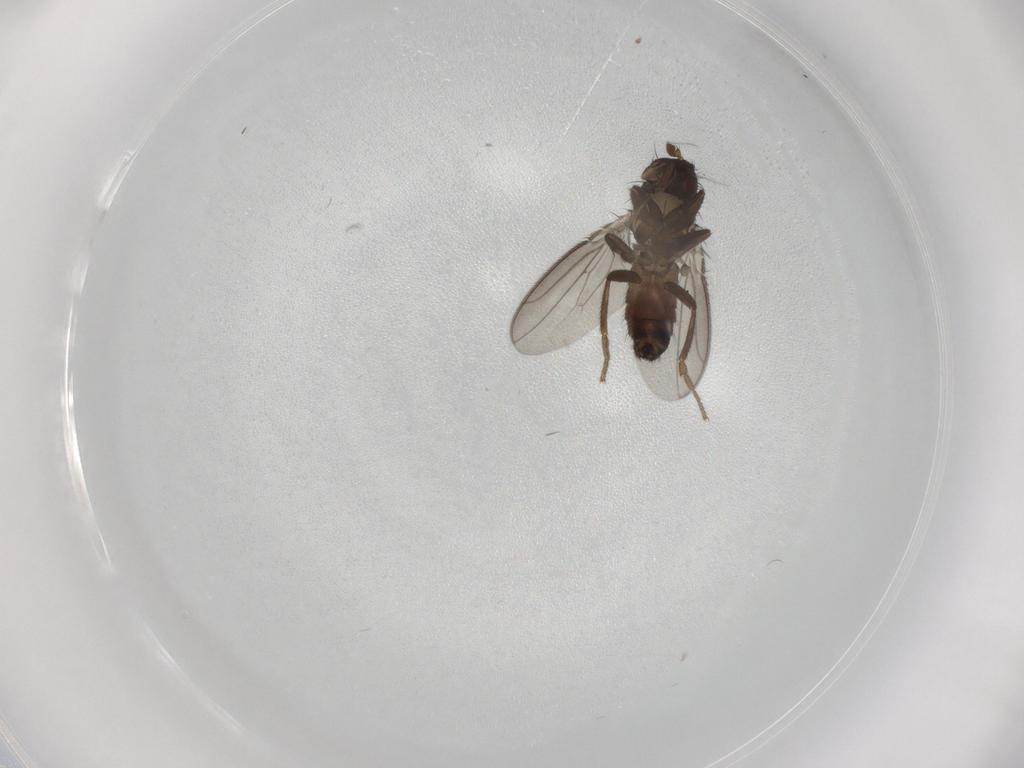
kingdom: Animalia
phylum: Arthropoda
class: Insecta
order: Diptera
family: Sphaeroceridae
